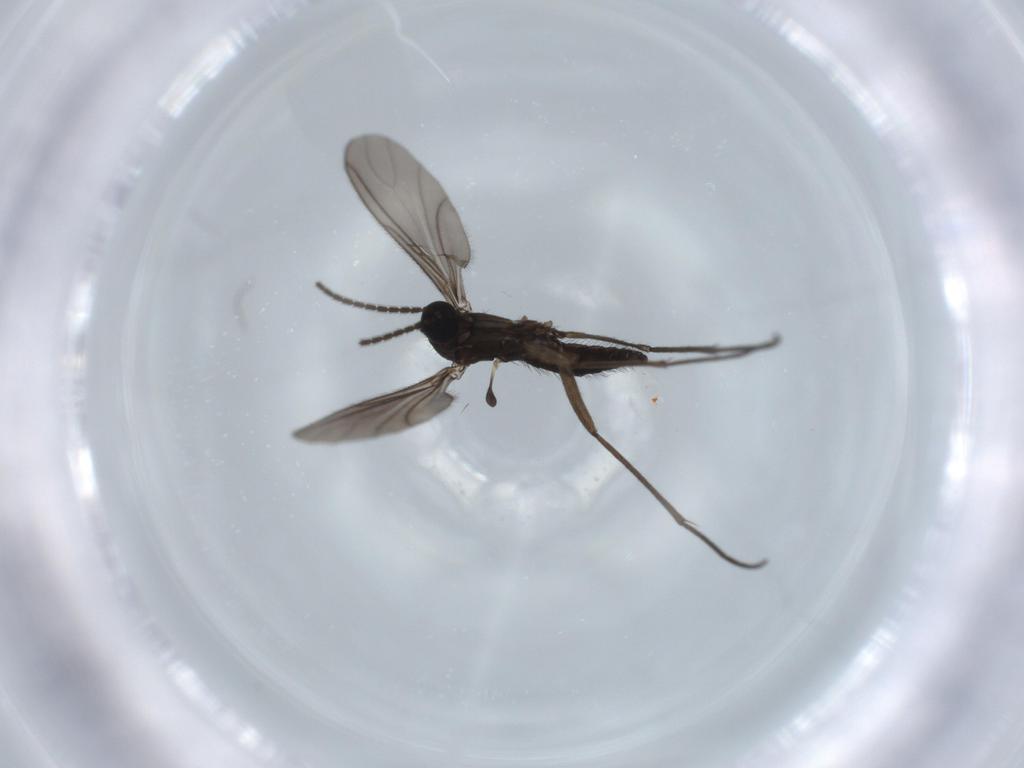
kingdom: Animalia
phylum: Arthropoda
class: Insecta
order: Diptera
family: Sciaridae
